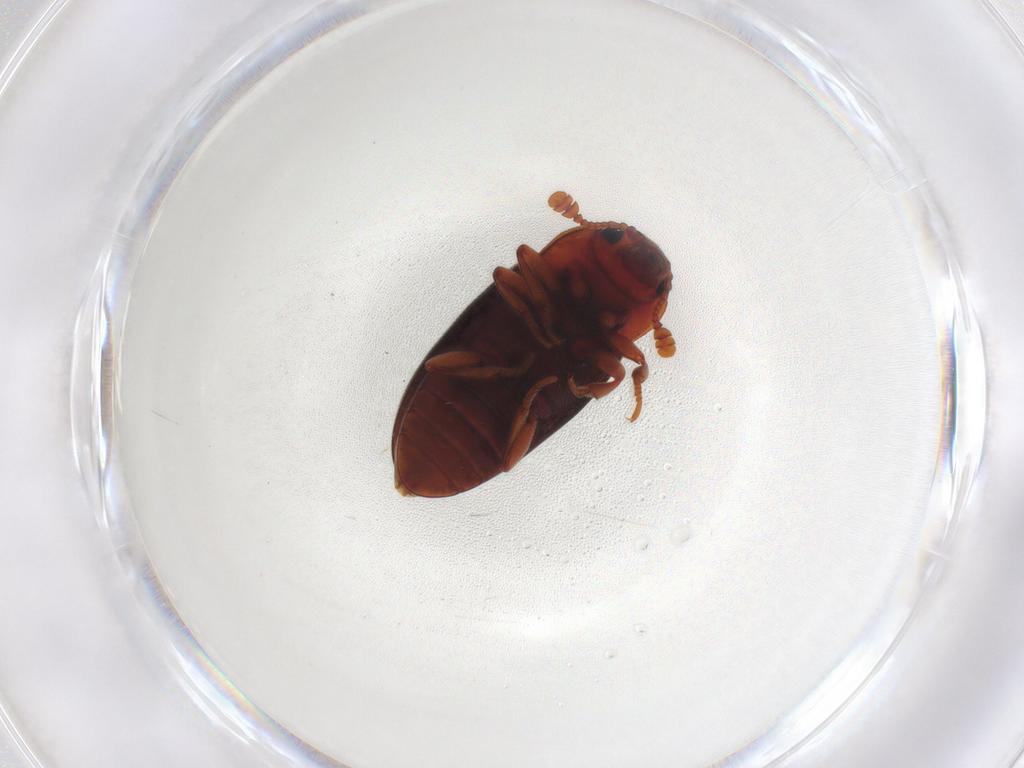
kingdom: Animalia
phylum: Arthropoda
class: Insecta
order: Coleoptera
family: Erotylidae
